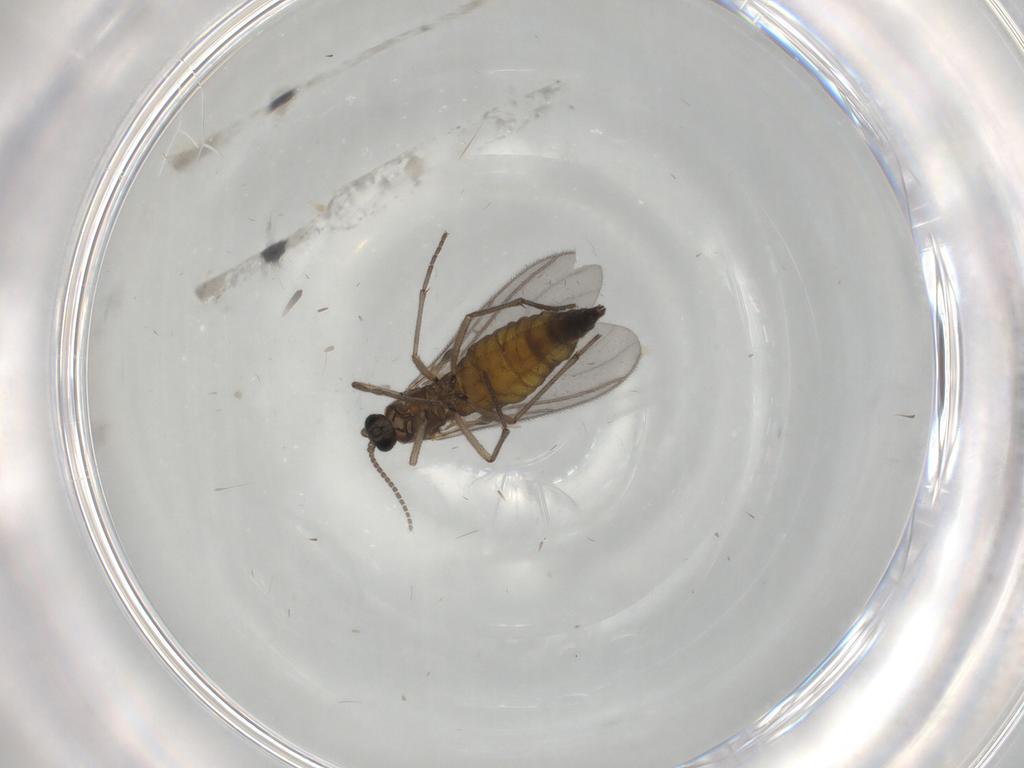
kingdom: Animalia
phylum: Arthropoda
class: Insecta
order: Diptera
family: Sciaridae
